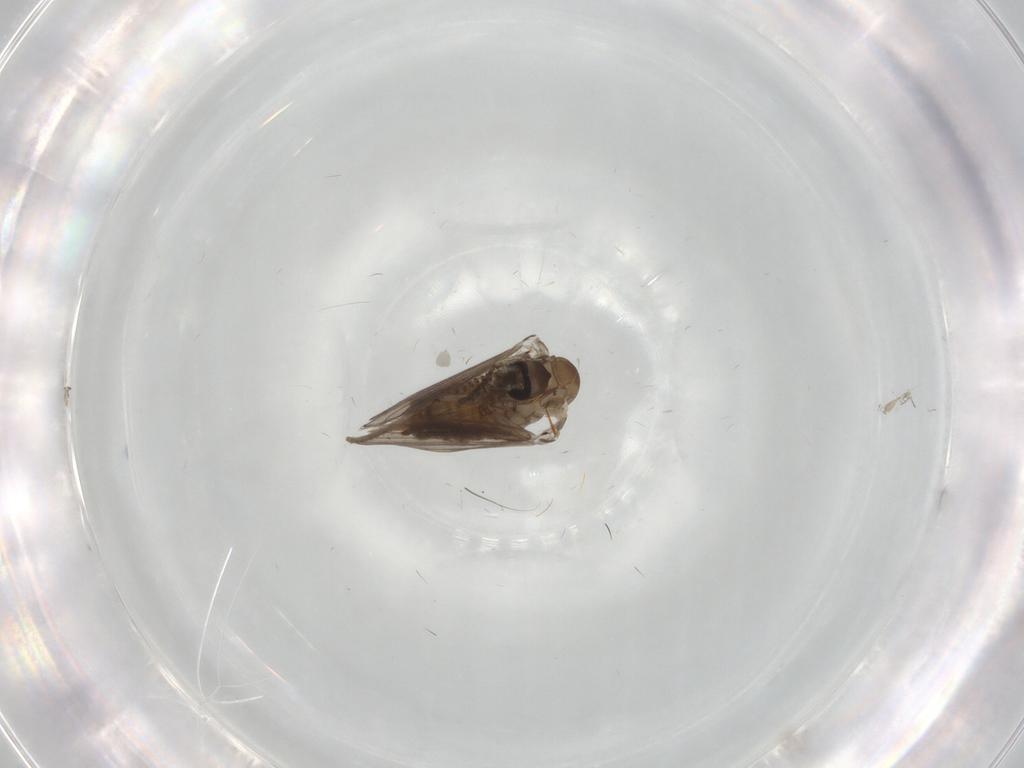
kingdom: Animalia
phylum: Arthropoda
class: Insecta
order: Diptera
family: Psychodidae
